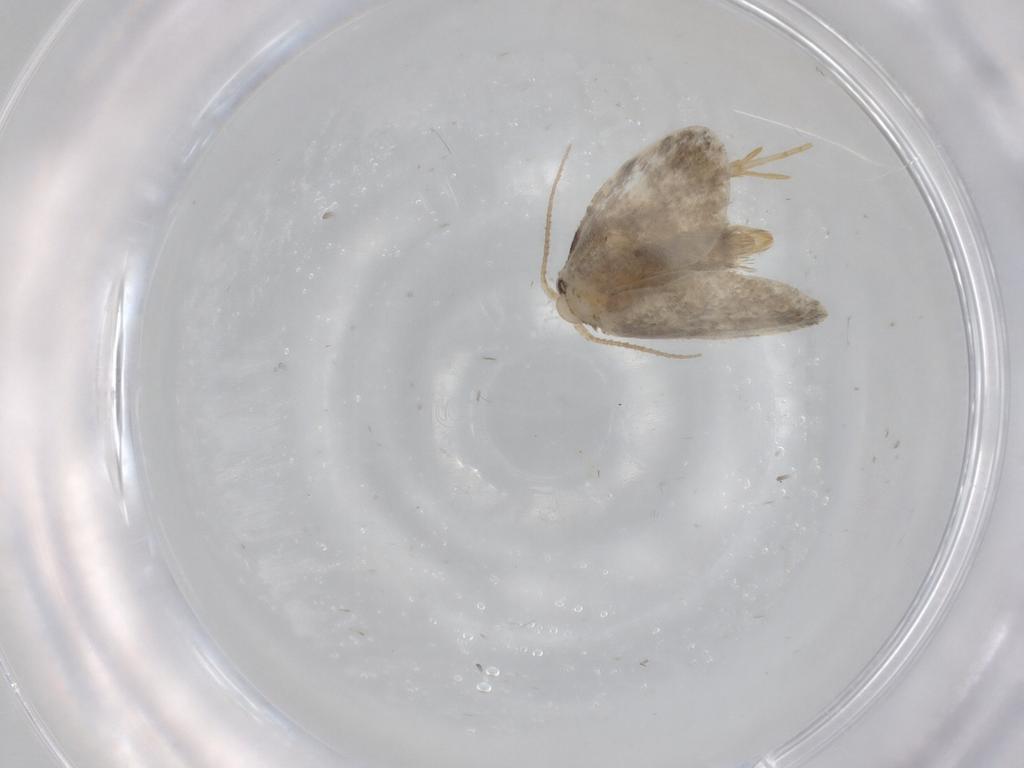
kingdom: Animalia
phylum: Arthropoda
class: Insecta
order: Lepidoptera
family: Psychidae
